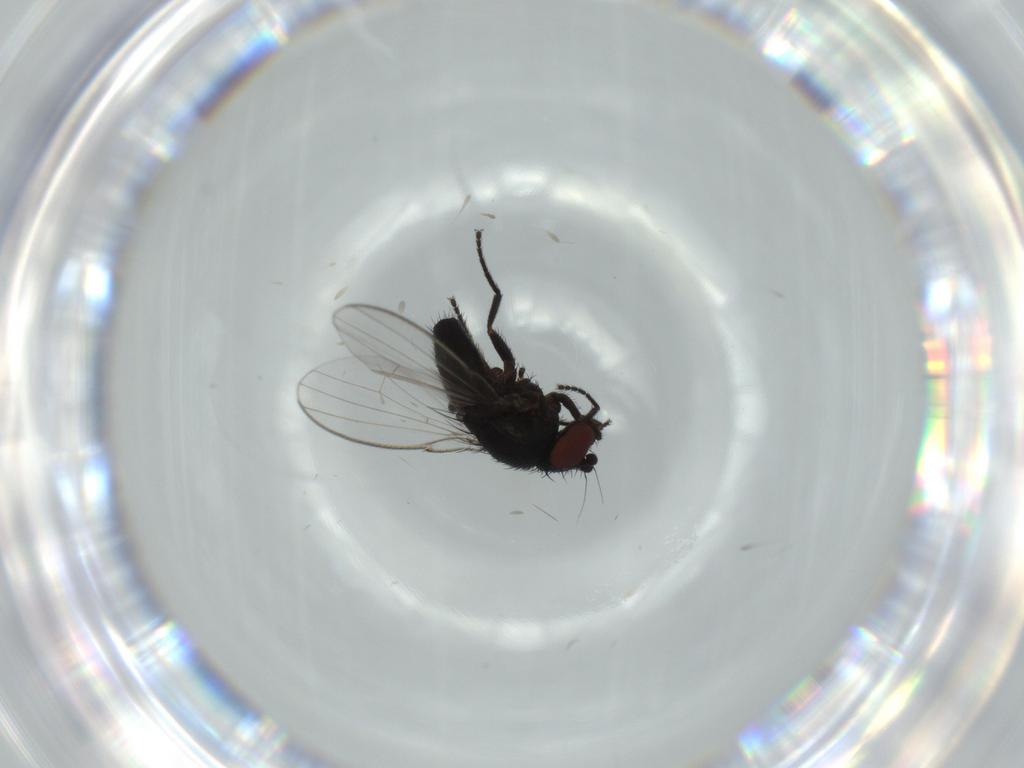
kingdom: Animalia
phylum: Arthropoda
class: Insecta
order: Diptera
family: Milichiidae
